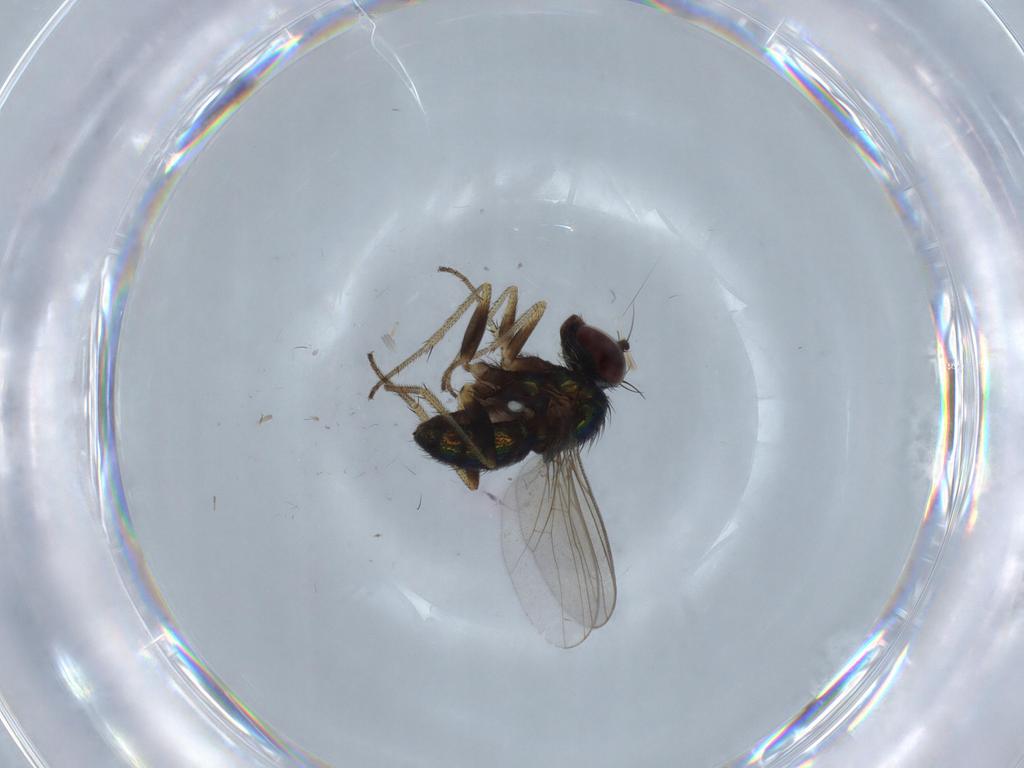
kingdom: Animalia
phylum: Arthropoda
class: Insecta
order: Diptera
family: Dolichopodidae
